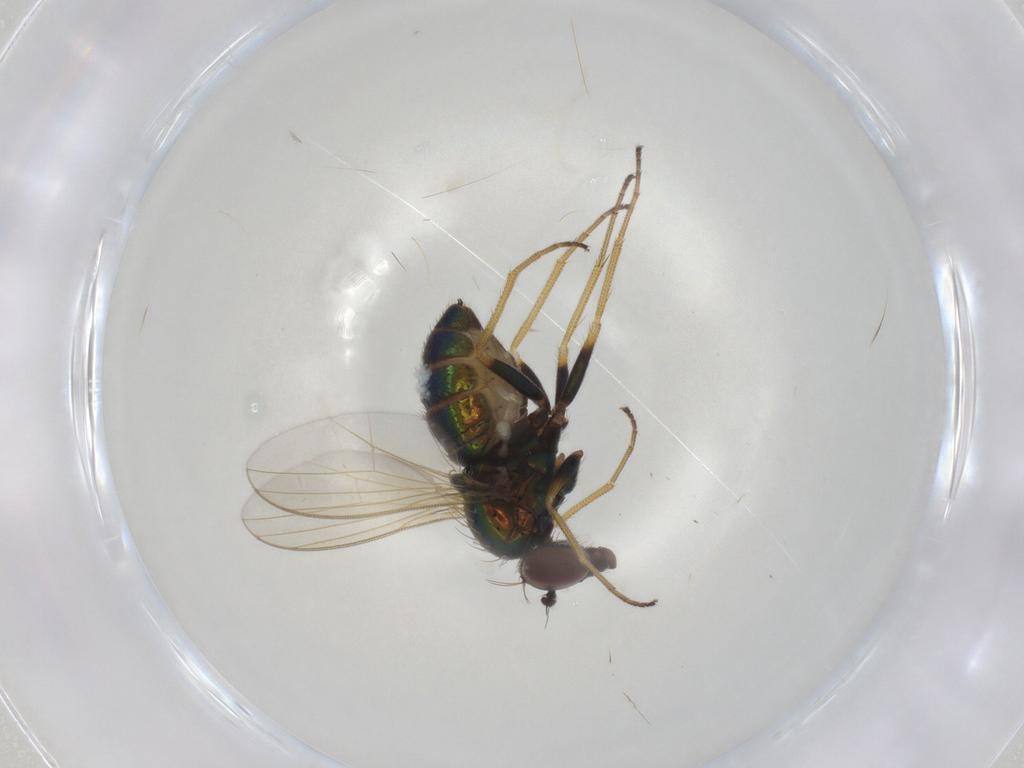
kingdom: Animalia
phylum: Arthropoda
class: Insecta
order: Diptera
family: Dolichopodidae
